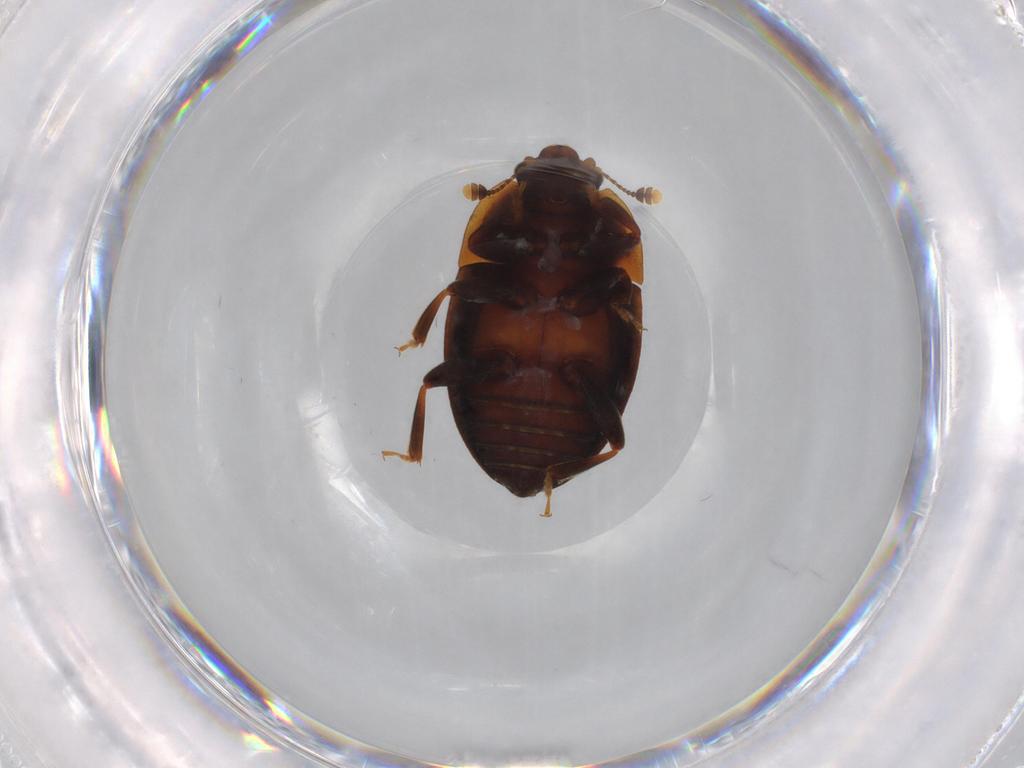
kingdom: Animalia
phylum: Arthropoda
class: Insecta
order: Coleoptera
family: Nitidulidae
